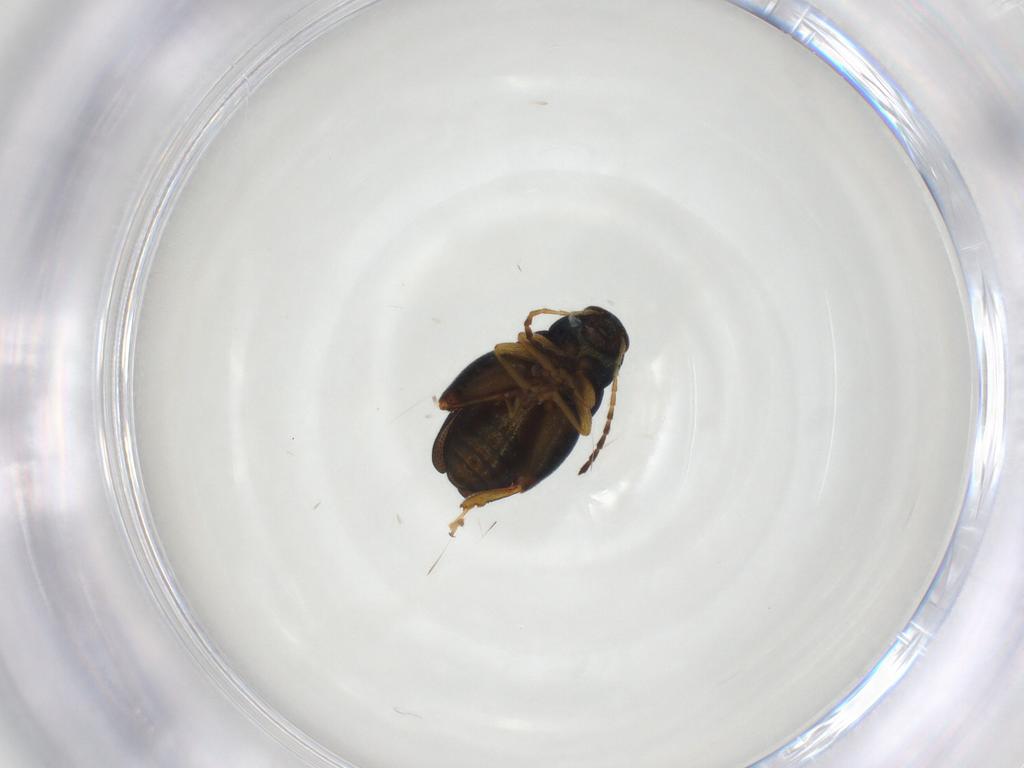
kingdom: Animalia
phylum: Arthropoda
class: Insecta
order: Coleoptera
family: Chrysomelidae
